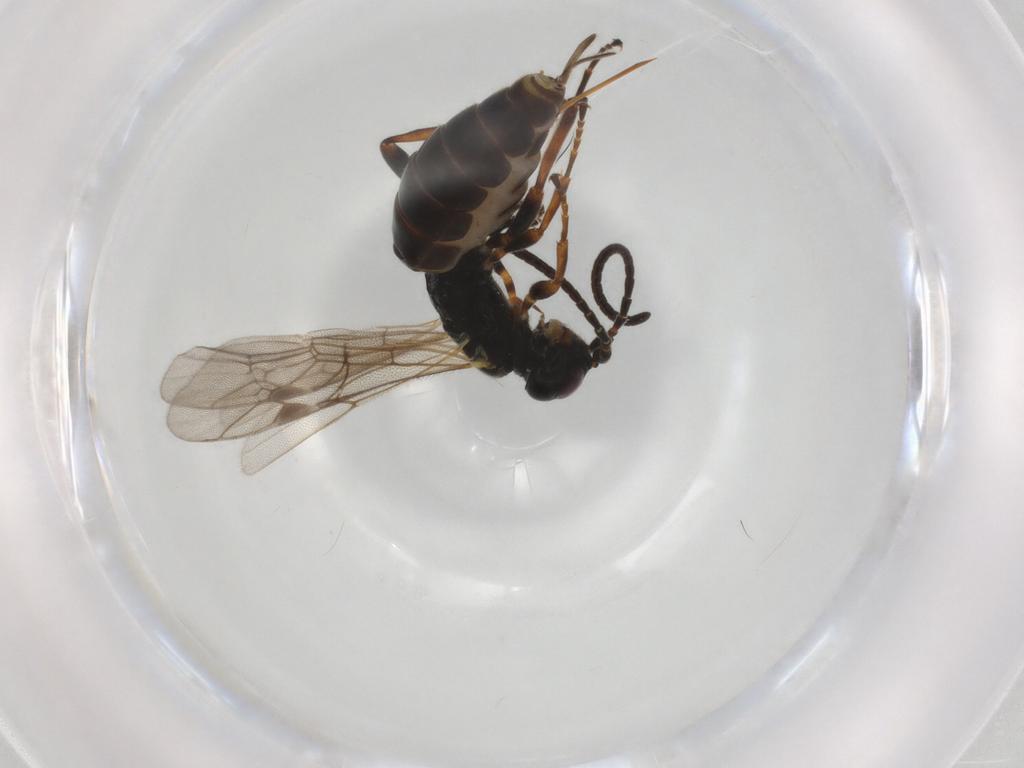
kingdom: Animalia
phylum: Arthropoda
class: Insecta
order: Hymenoptera
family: Ichneumonidae
